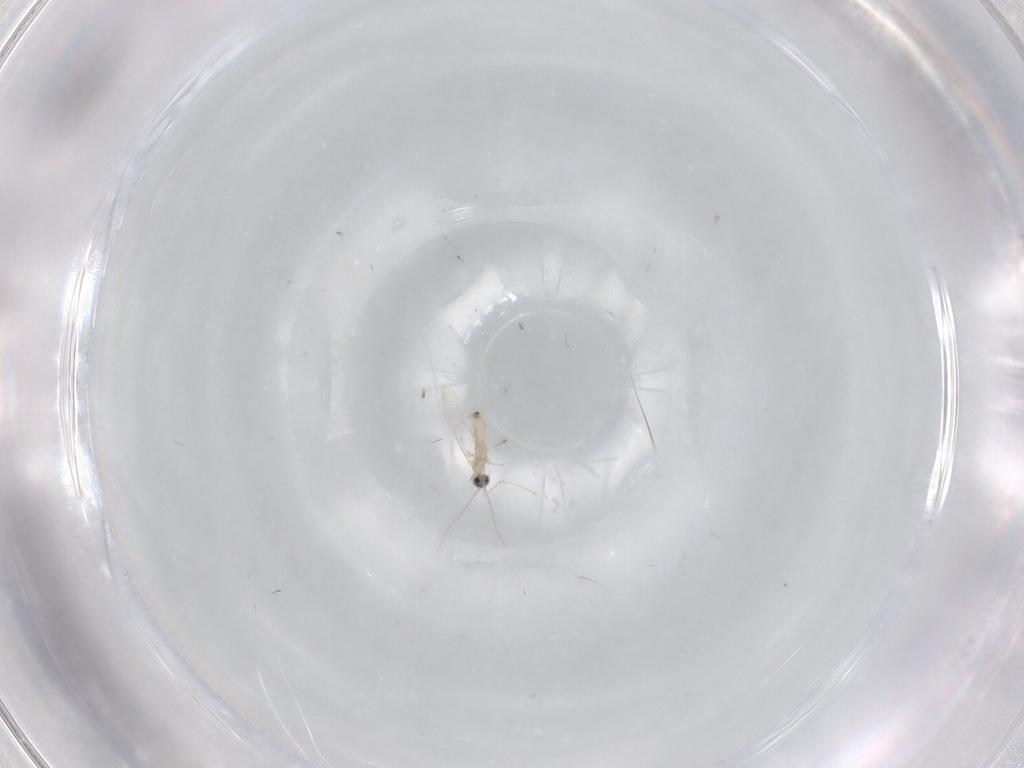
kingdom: Animalia
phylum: Arthropoda
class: Insecta
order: Diptera
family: Cecidomyiidae
